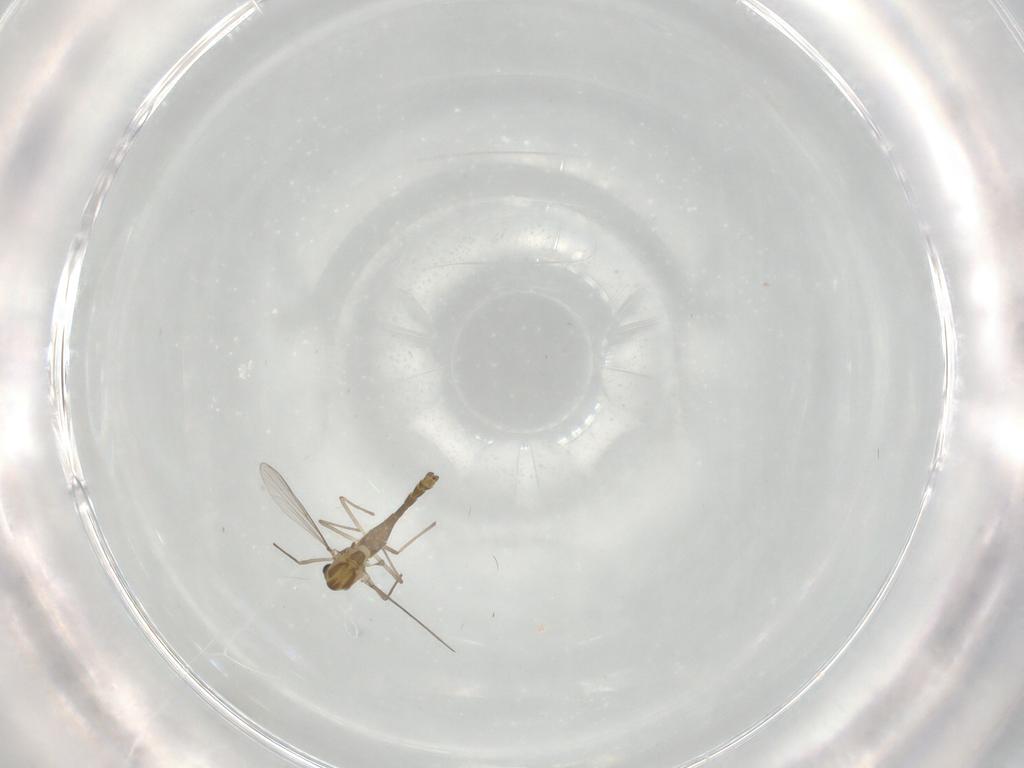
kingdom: Animalia
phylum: Arthropoda
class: Insecta
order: Diptera
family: Chironomidae
